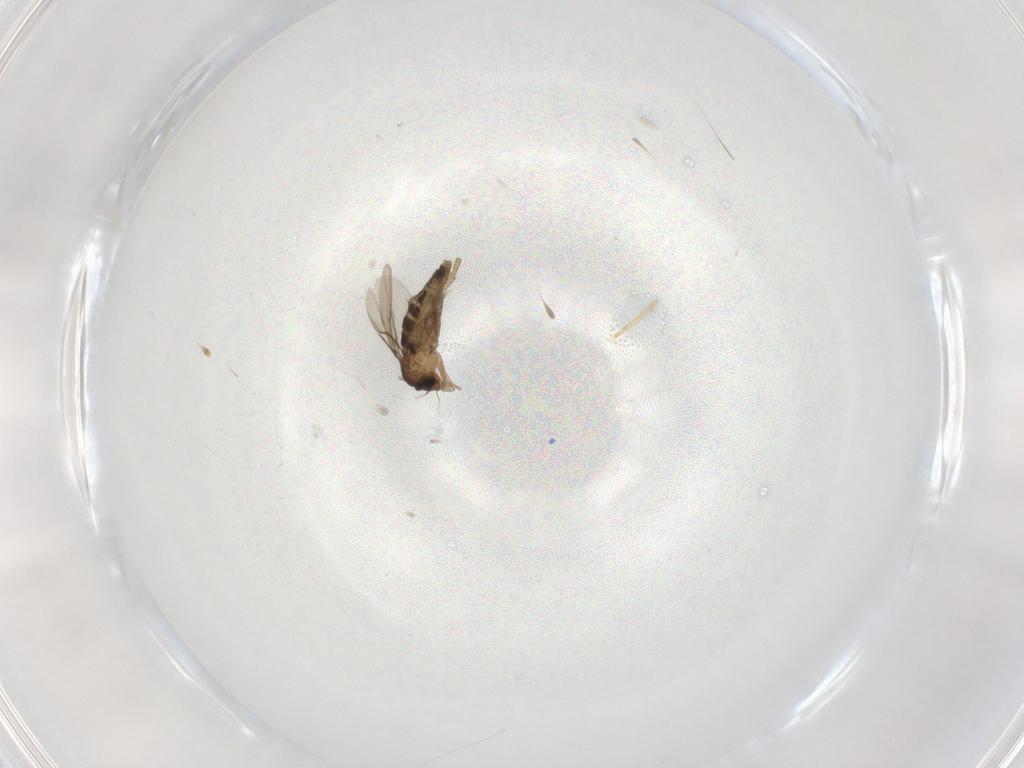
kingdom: Animalia
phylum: Arthropoda
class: Insecta
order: Diptera
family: Cecidomyiidae
